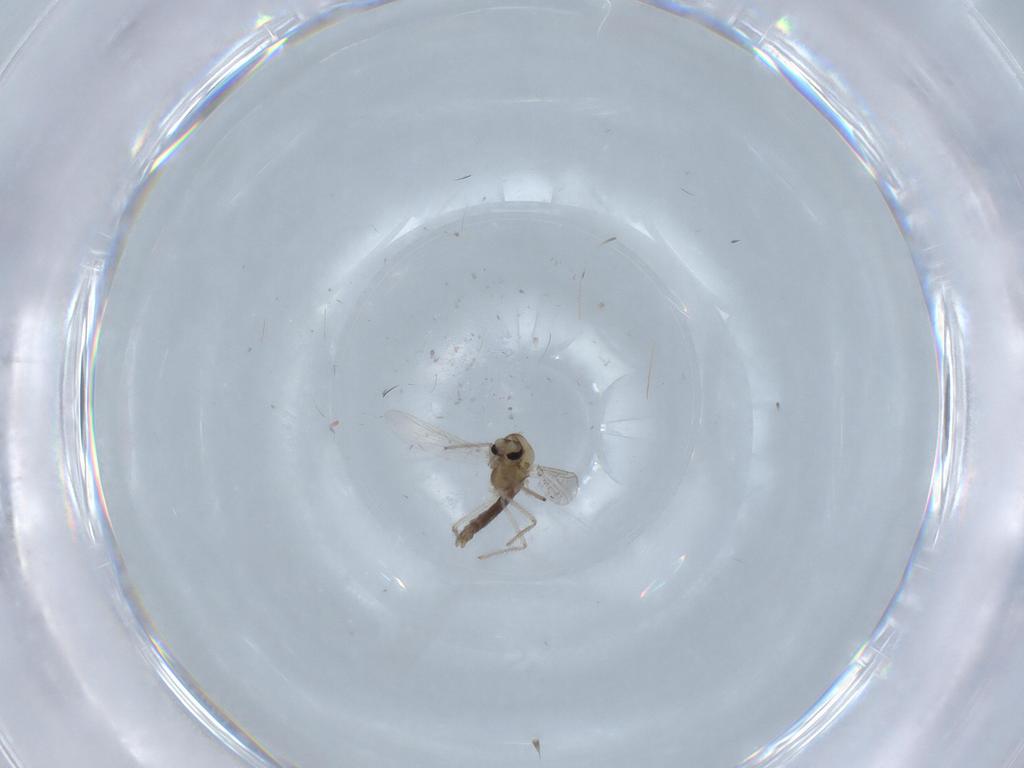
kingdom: Animalia
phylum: Arthropoda
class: Insecta
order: Diptera
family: Chironomidae
